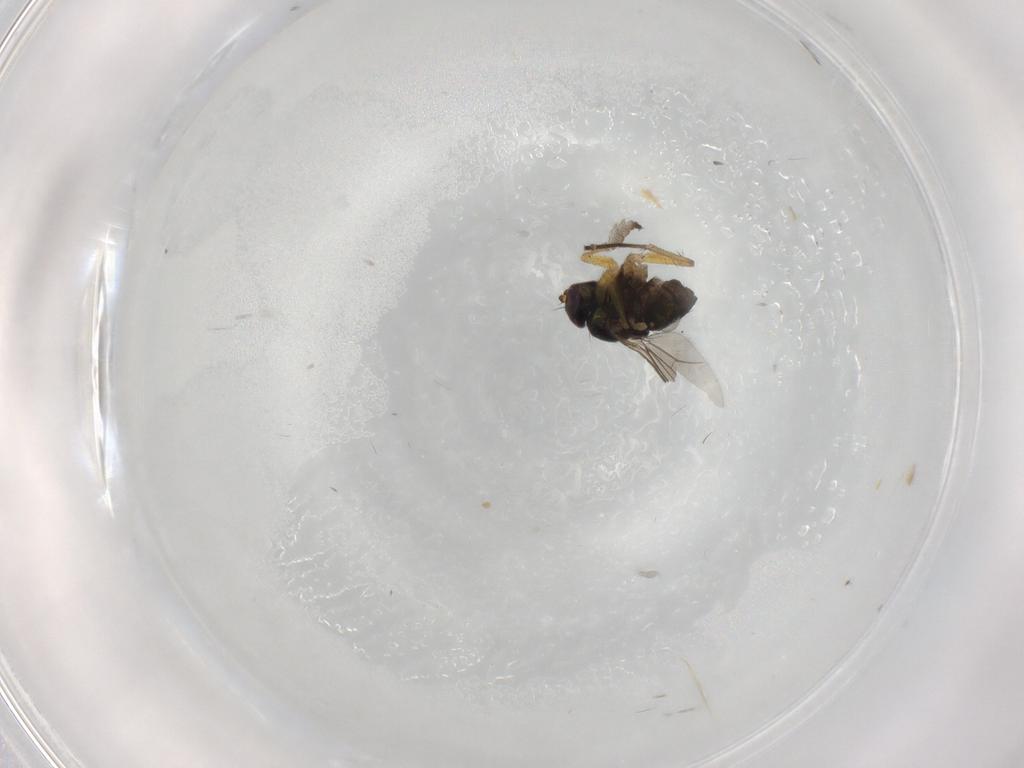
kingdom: Animalia
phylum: Arthropoda
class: Insecta
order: Diptera
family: Dolichopodidae
